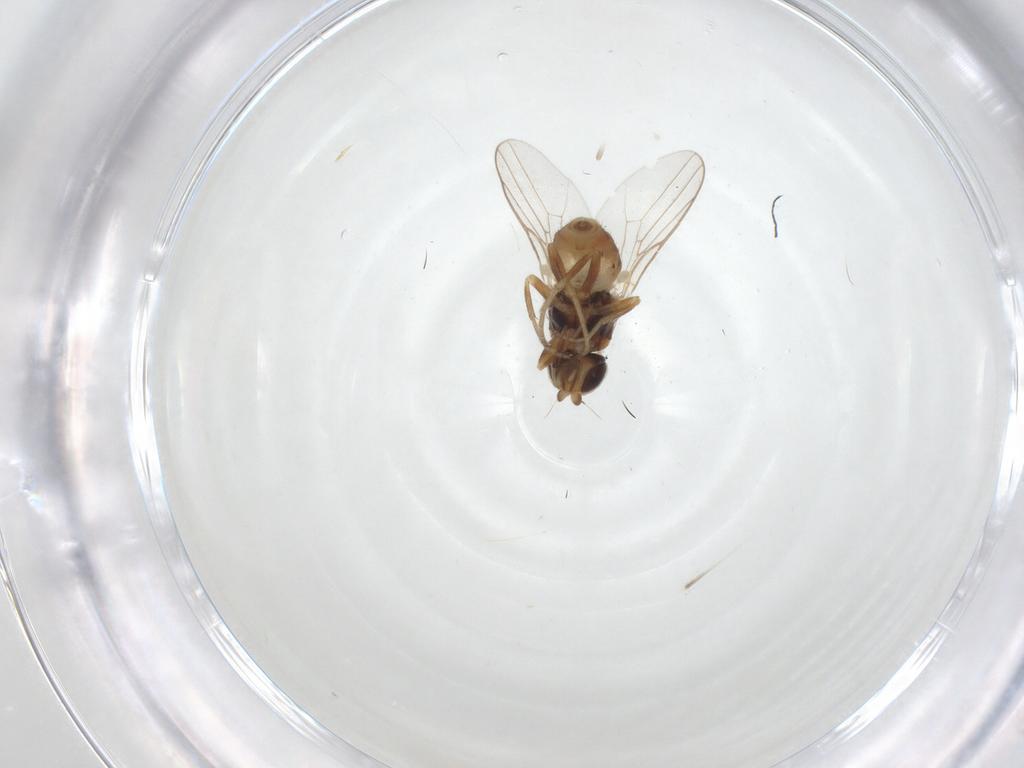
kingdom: Animalia
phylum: Arthropoda
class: Insecta
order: Diptera
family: Chloropidae
